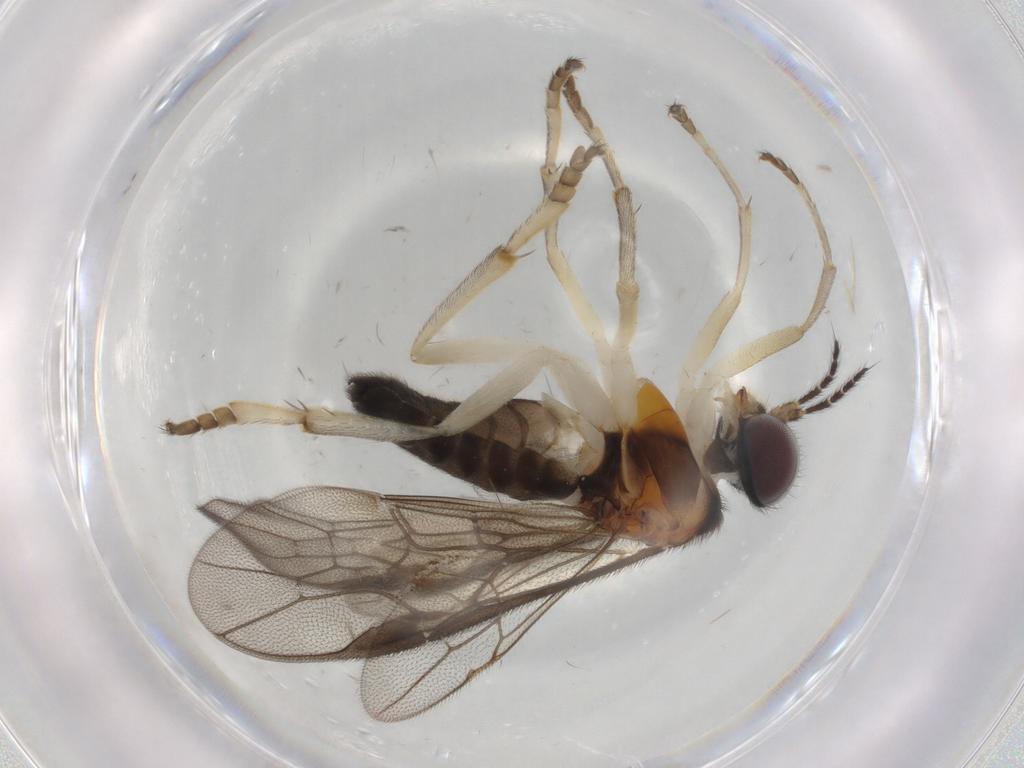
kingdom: Animalia
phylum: Arthropoda
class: Insecta
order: Hymenoptera
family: Pergidae
